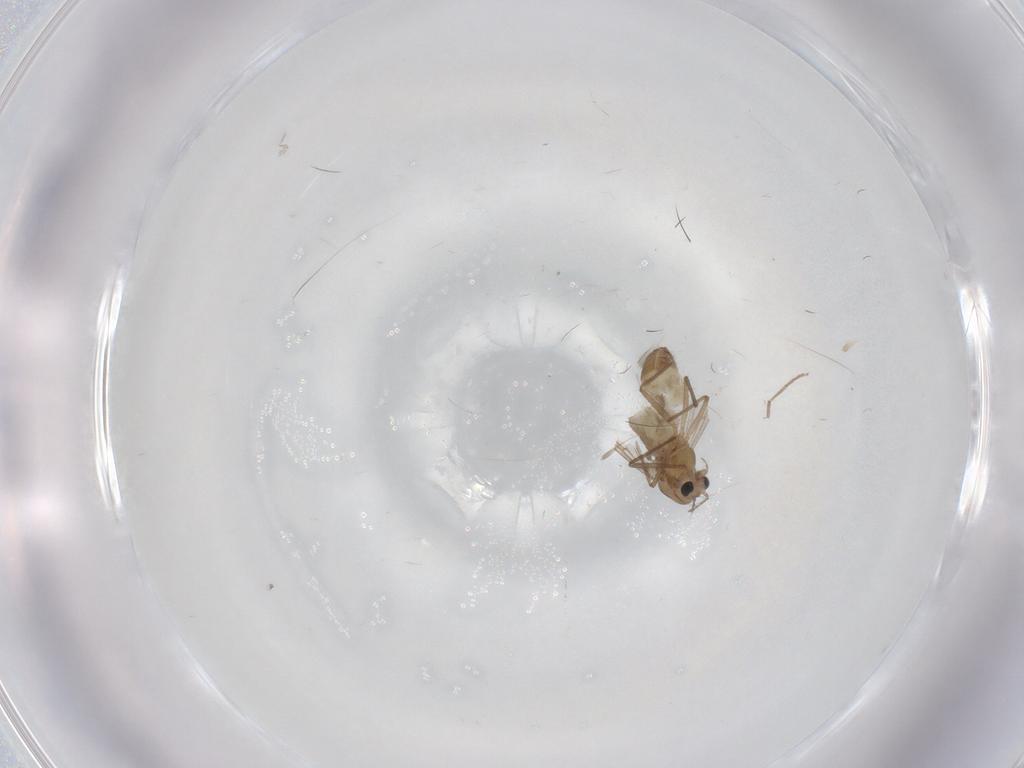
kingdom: Animalia
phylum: Arthropoda
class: Insecta
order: Diptera
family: Chironomidae
